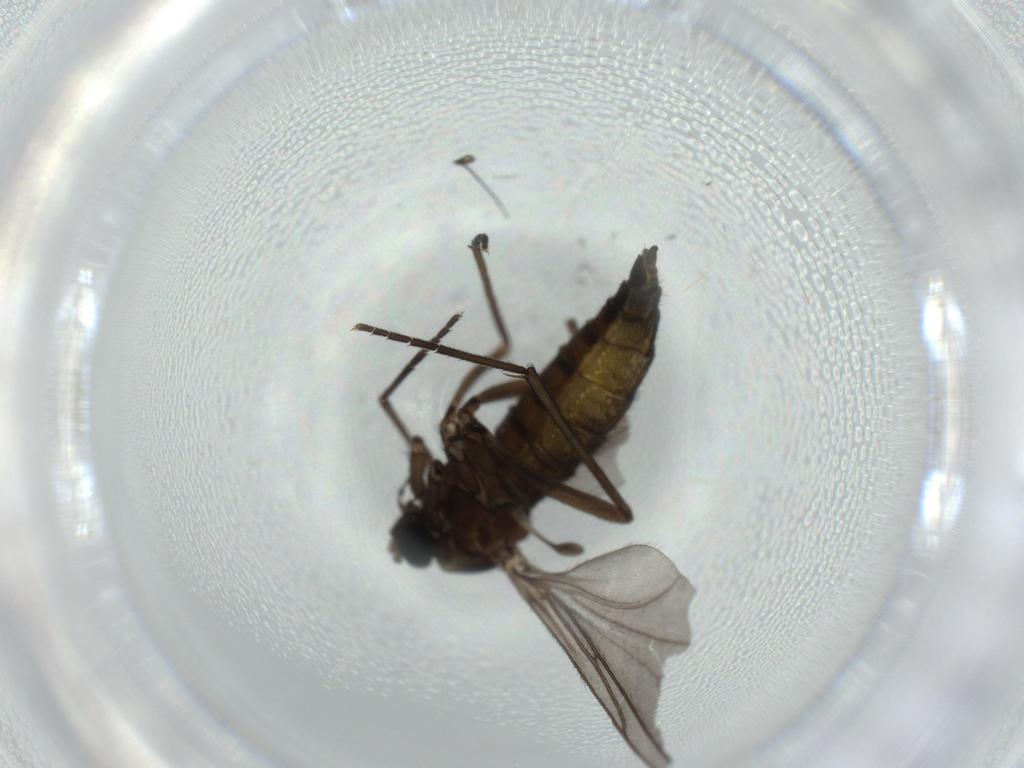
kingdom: Animalia
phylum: Arthropoda
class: Insecta
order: Diptera
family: Sciaridae
